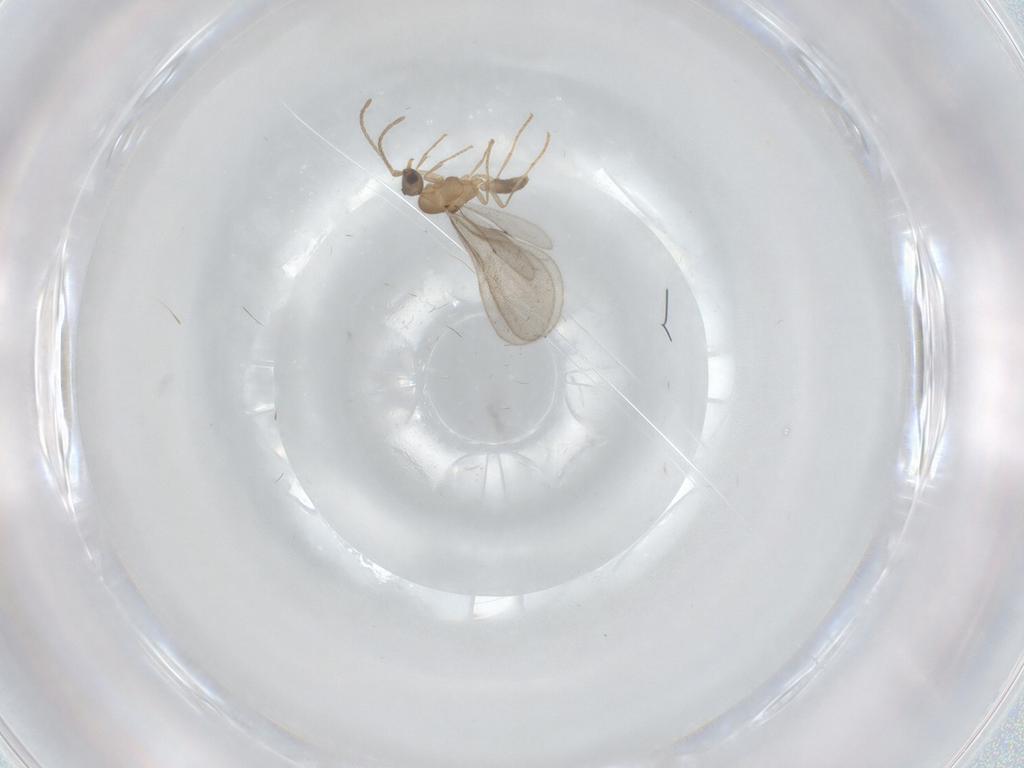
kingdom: Animalia
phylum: Arthropoda
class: Insecta
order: Hymenoptera
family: Formicidae
